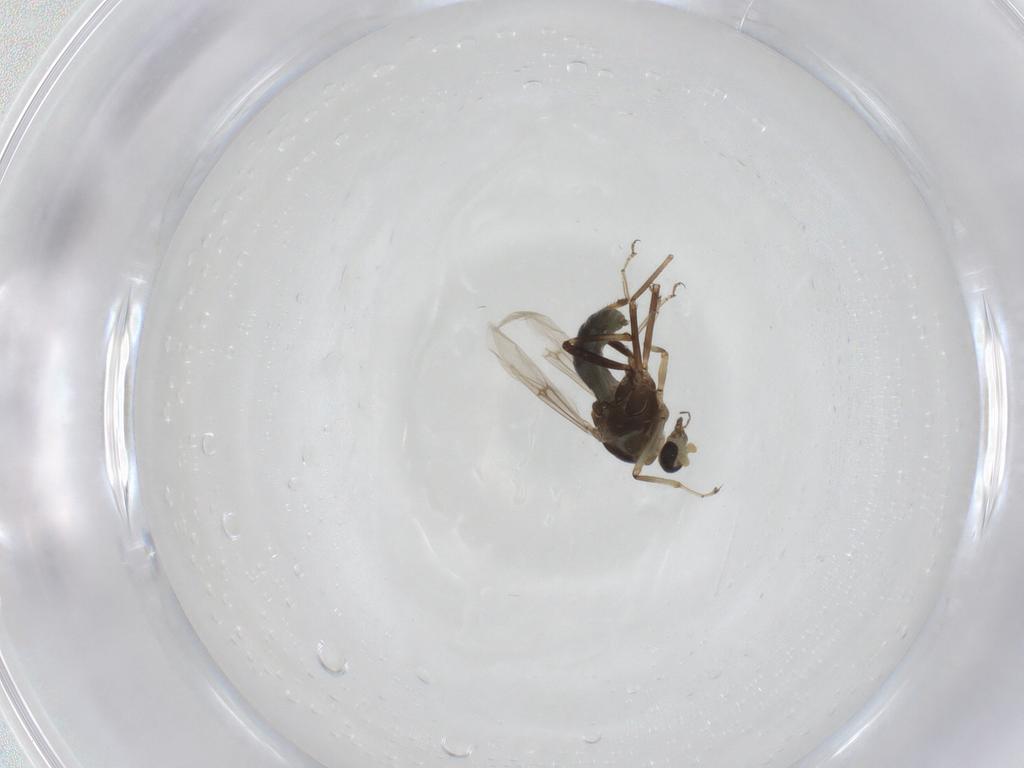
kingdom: Animalia
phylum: Arthropoda
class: Insecta
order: Diptera
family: Ceratopogonidae
